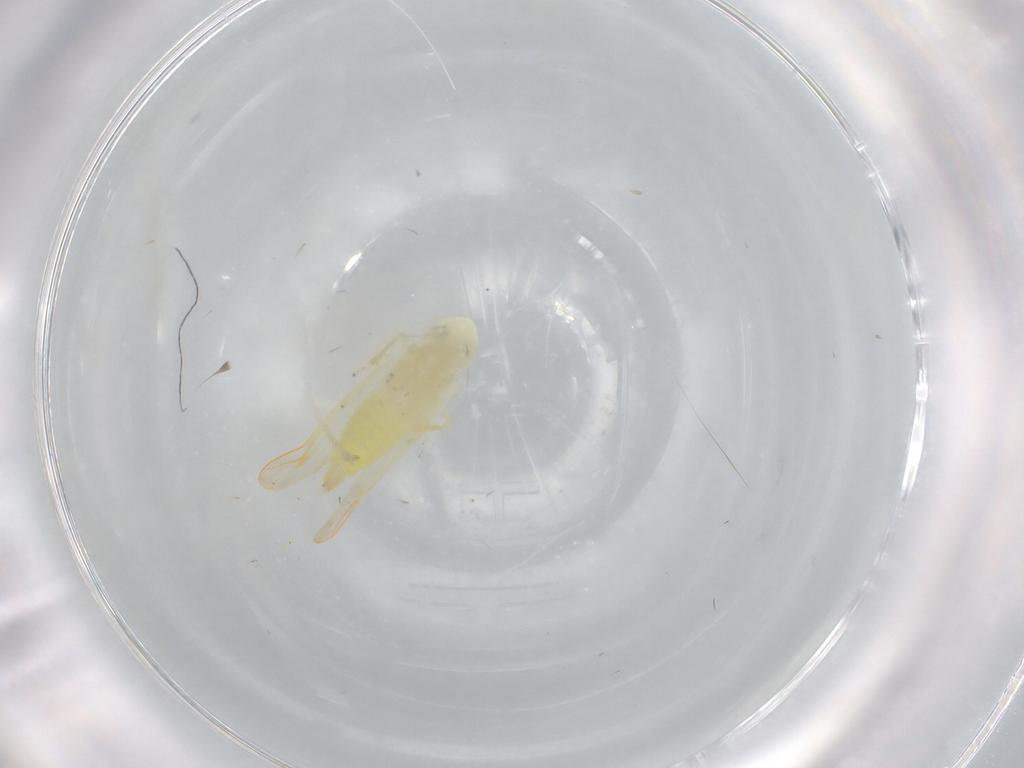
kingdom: Animalia
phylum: Arthropoda
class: Insecta
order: Hemiptera
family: Cicadellidae
